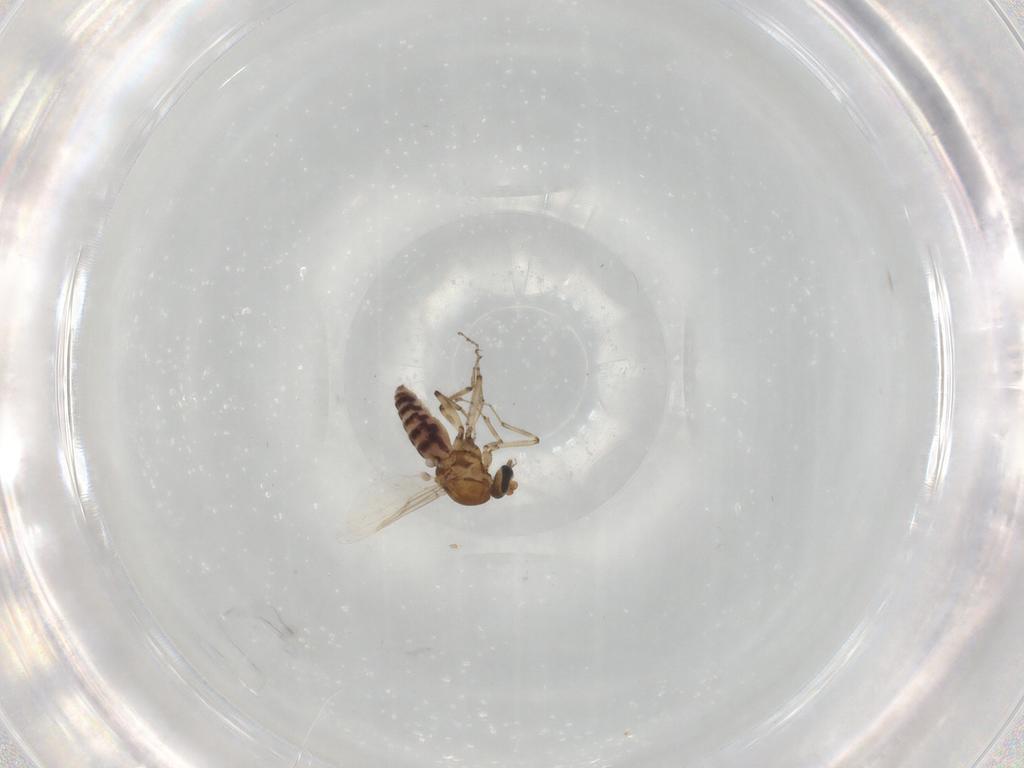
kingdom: Animalia
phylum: Arthropoda
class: Insecta
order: Diptera
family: Ceratopogonidae
